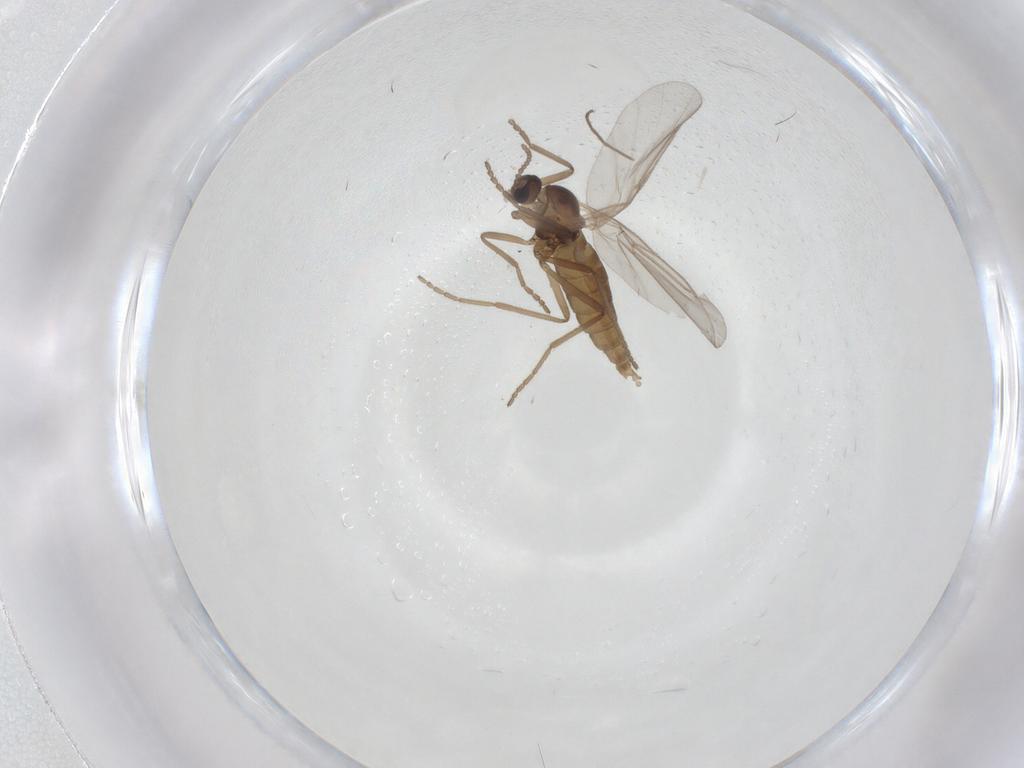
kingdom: Animalia
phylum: Arthropoda
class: Insecta
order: Diptera
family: Cecidomyiidae
